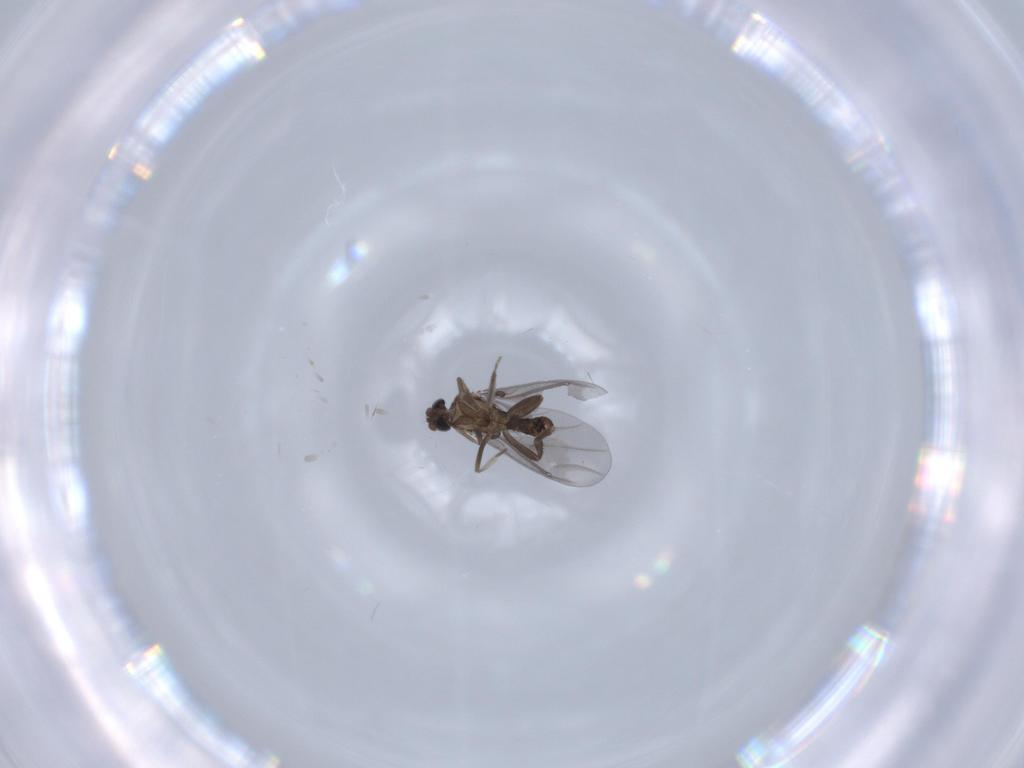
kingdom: Animalia
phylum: Arthropoda
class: Insecta
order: Diptera
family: Phoridae
